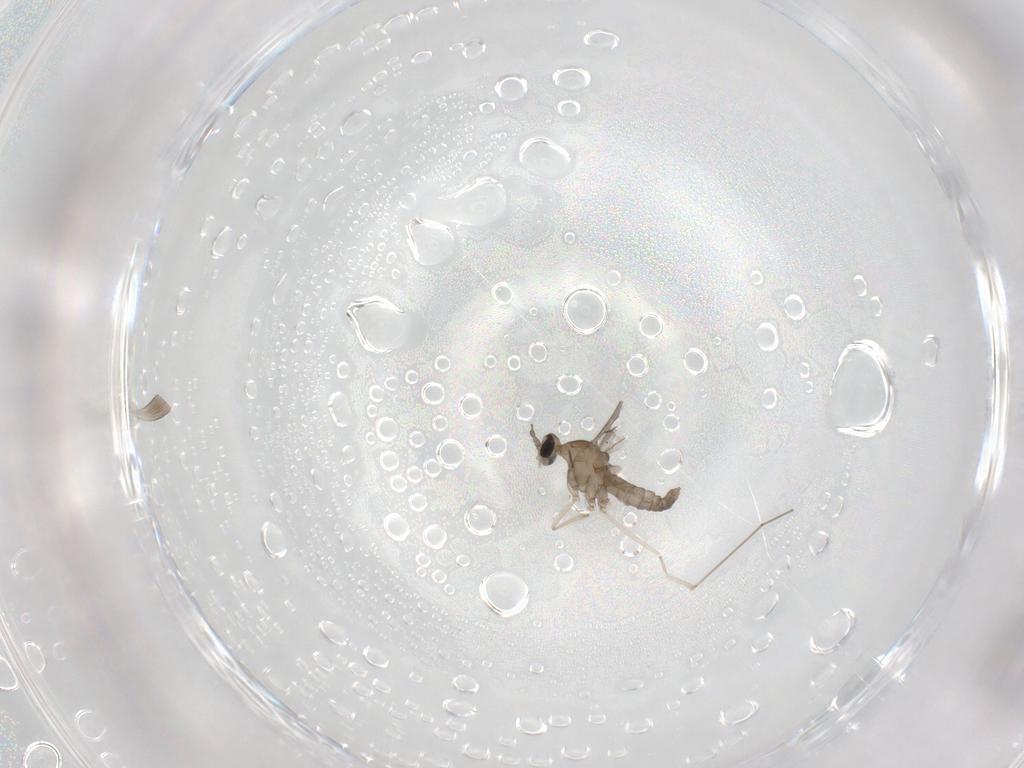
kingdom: Animalia
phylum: Arthropoda
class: Insecta
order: Diptera
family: Cecidomyiidae
